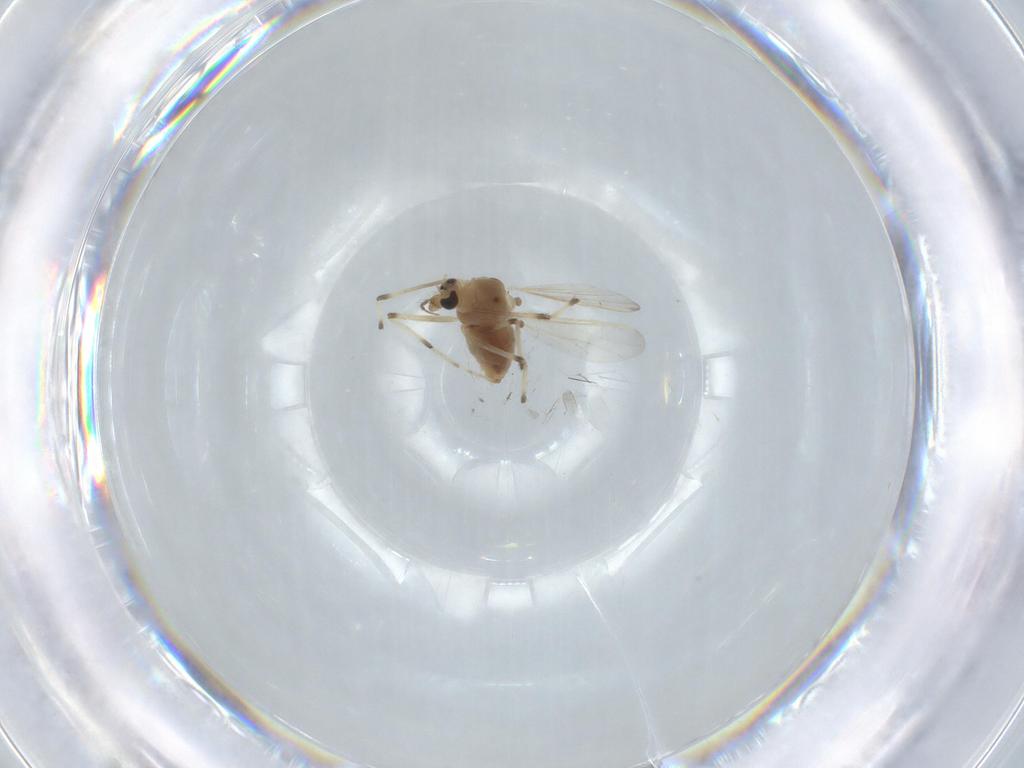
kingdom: Animalia
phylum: Arthropoda
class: Insecta
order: Diptera
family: Chironomidae
